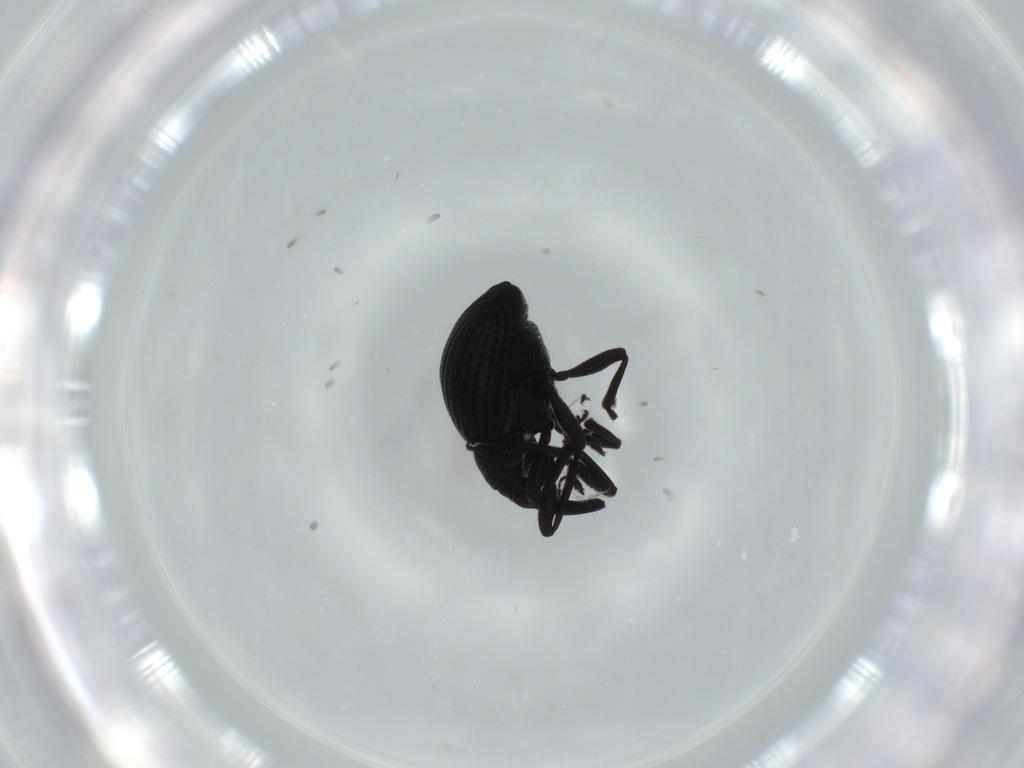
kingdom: Animalia
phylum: Arthropoda
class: Insecta
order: Coleoptera
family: Brentidae
